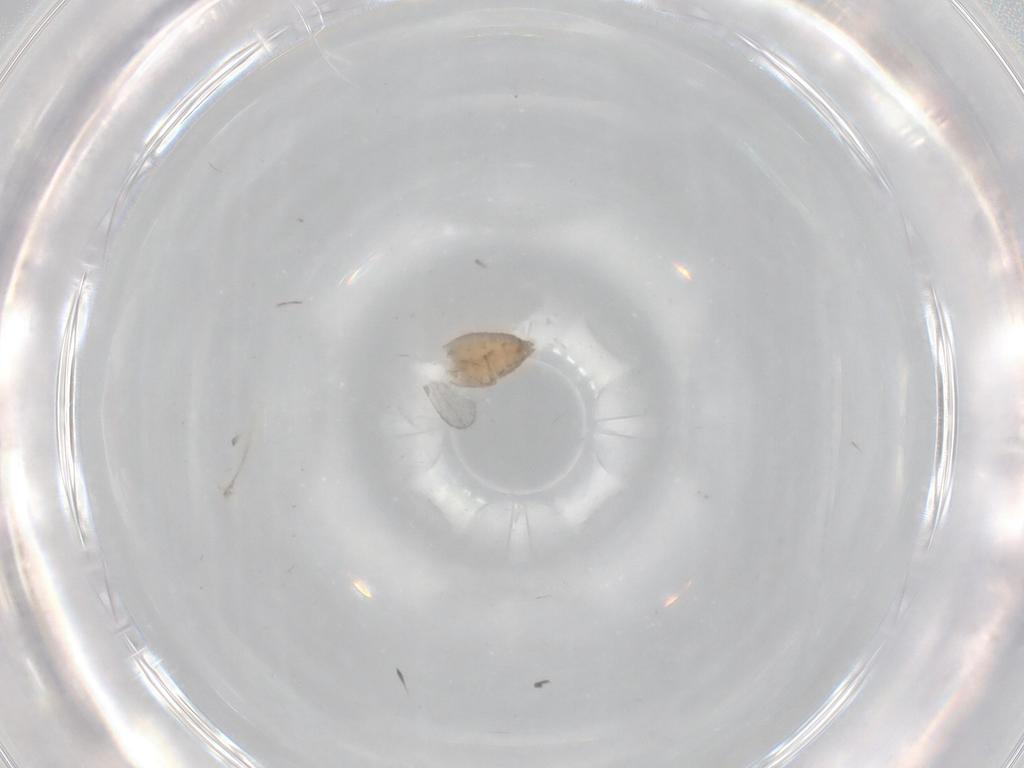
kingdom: Animalia
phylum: Arthropoda
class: Insecta
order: Diptera
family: Cecidomyiidae
